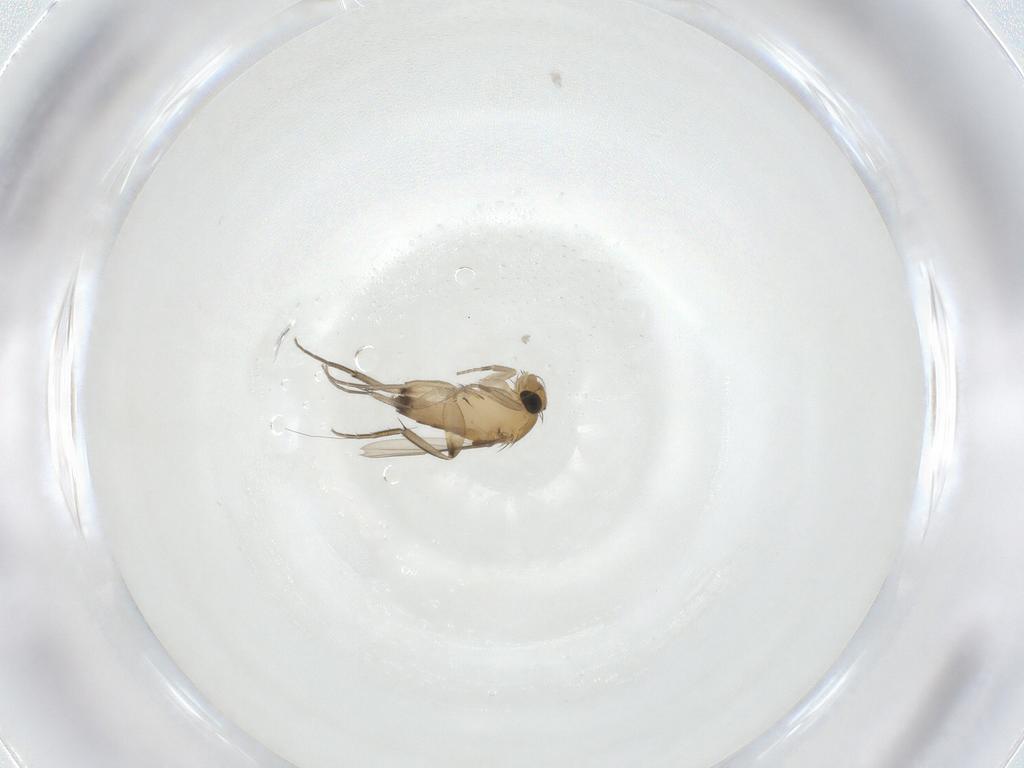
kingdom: Animalia
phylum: Arthropoda
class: Insecta
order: Diptera
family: Phoridae
